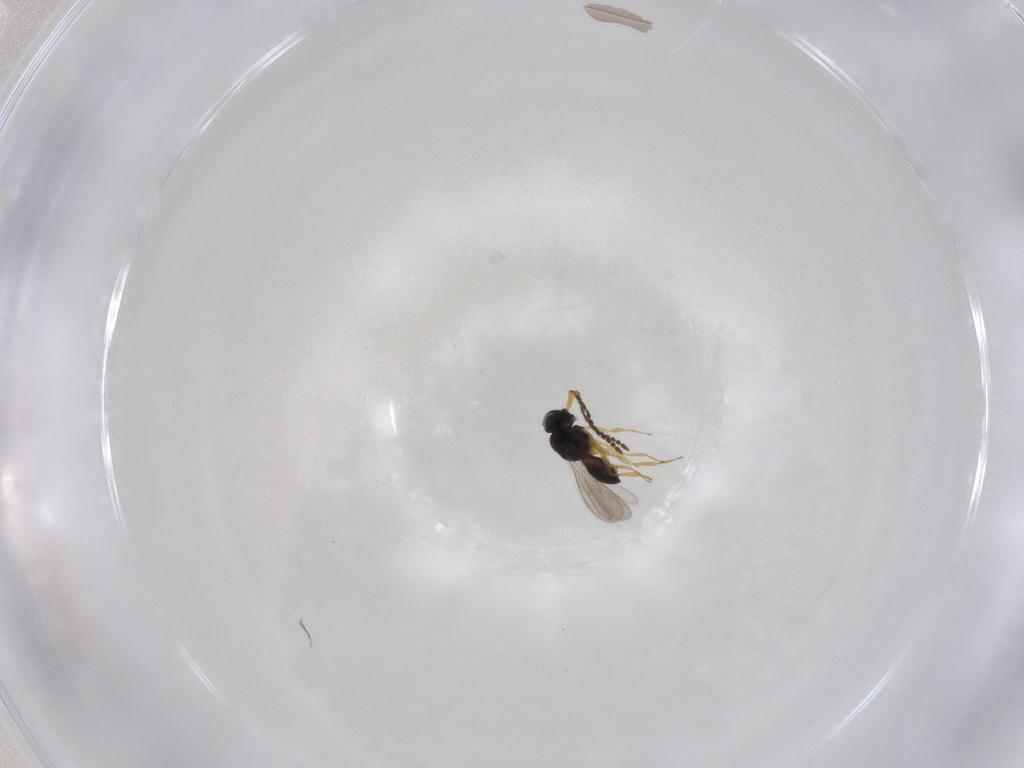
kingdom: Animalia
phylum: Arthropoda
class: Insecta
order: Hymenoptera
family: Scelionidae
